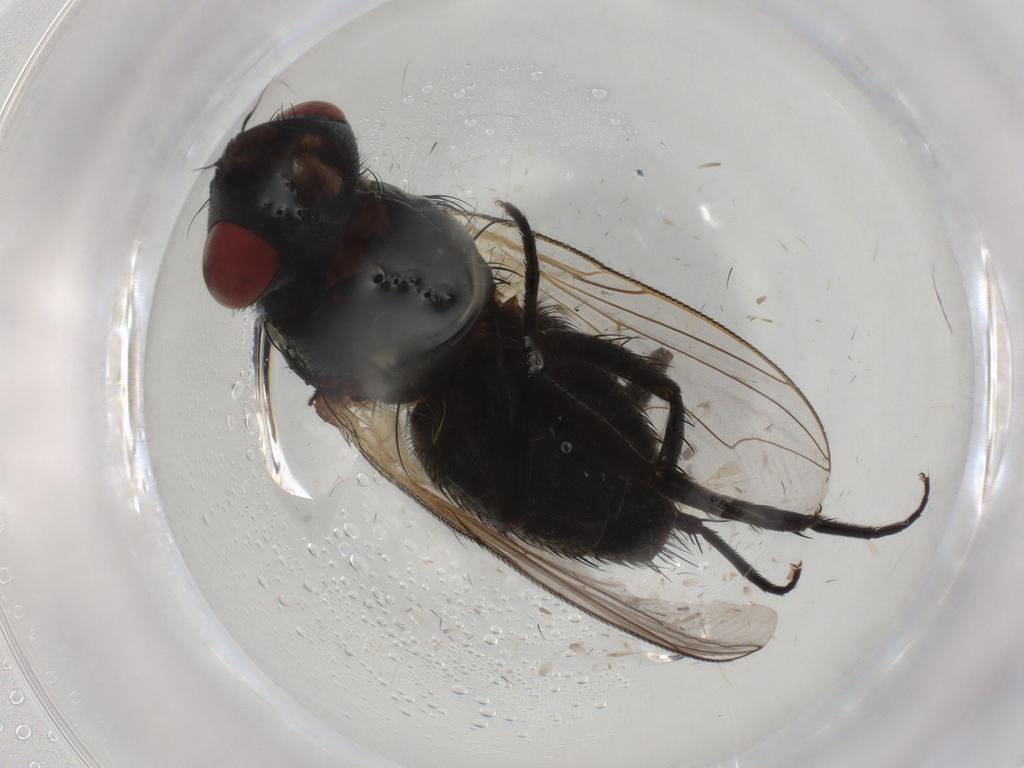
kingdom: Animalia
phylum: Arthropoda
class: Insecta
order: Diptera
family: Sarcophagidae
